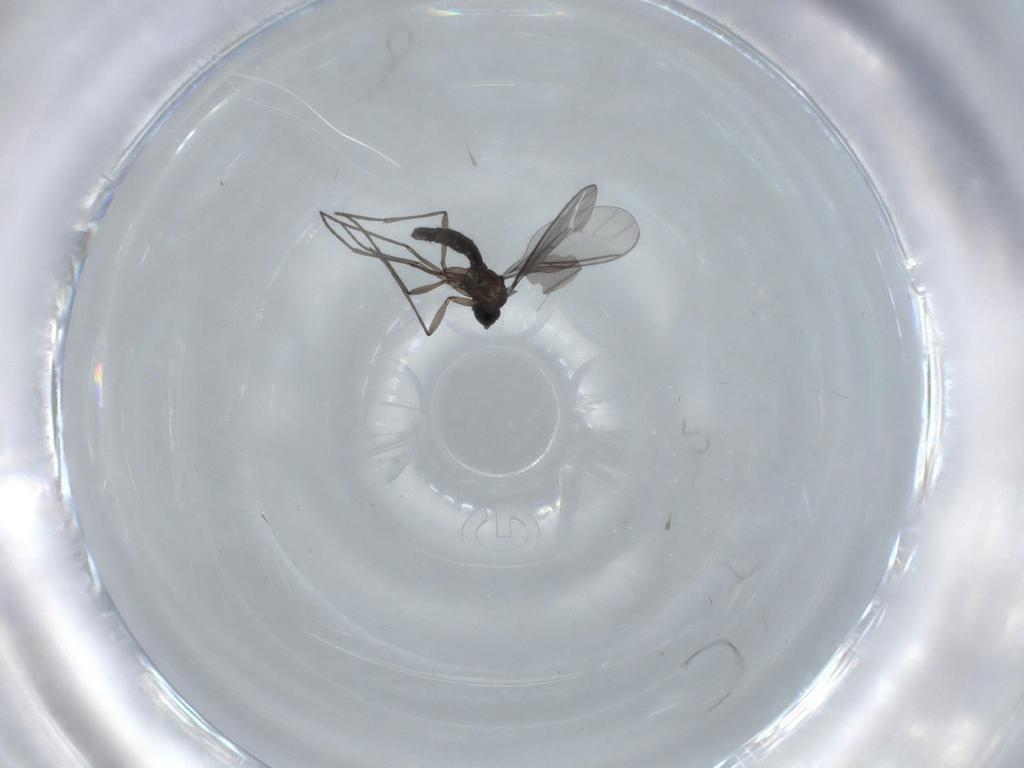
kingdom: Animalia
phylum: Arthropoda
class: Insecta
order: Diptera
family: Sciaridae
